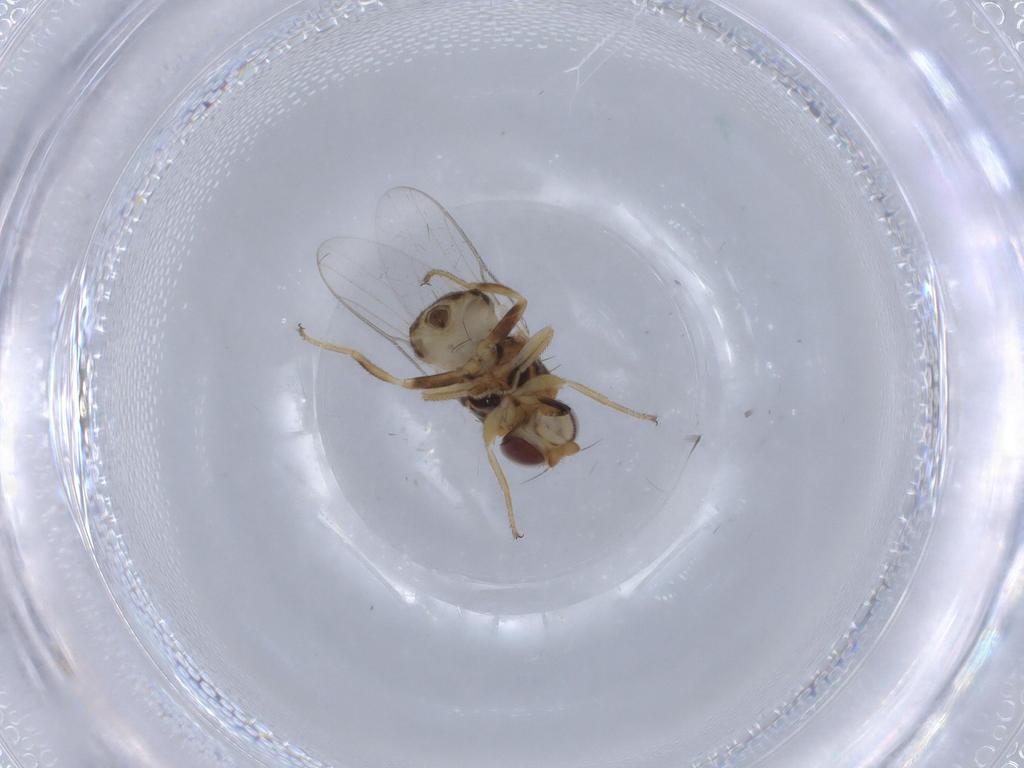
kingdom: Animalia
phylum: Arthropoda
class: Insecta
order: Diptera
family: Chloropidae
